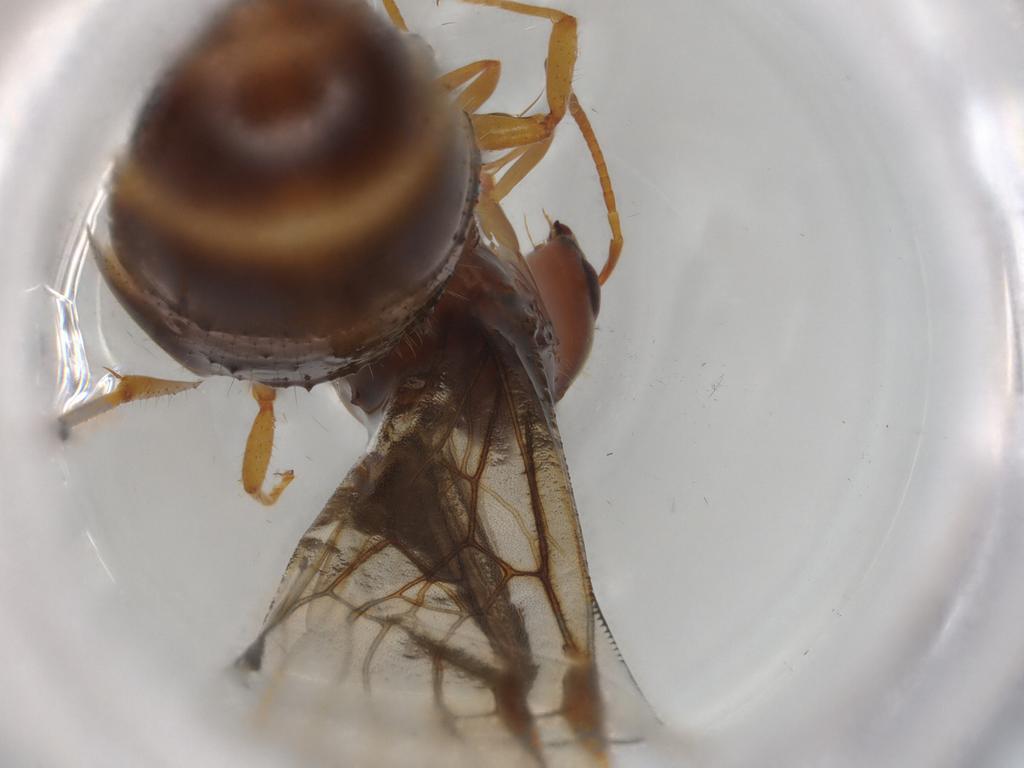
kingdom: Animalia
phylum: Arthropoda
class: Insecta
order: Hymenoptera
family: Formicidae
